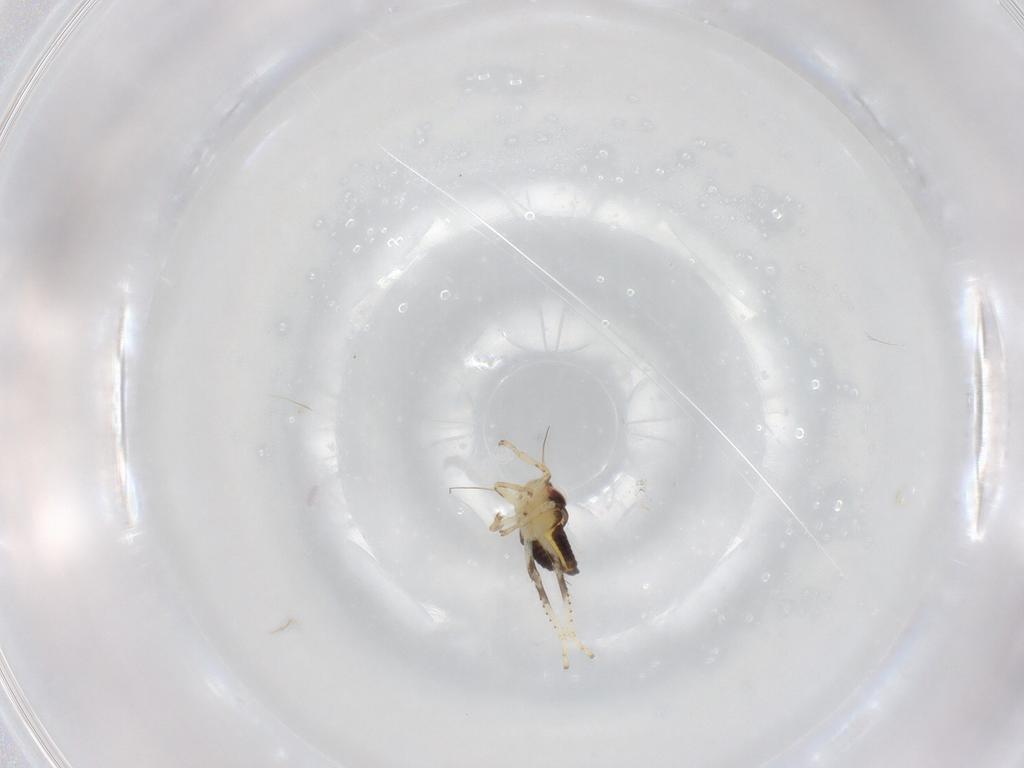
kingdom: Animalia
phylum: Arthropoda
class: Insecta
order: Hemiptera
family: Cicadellidae
